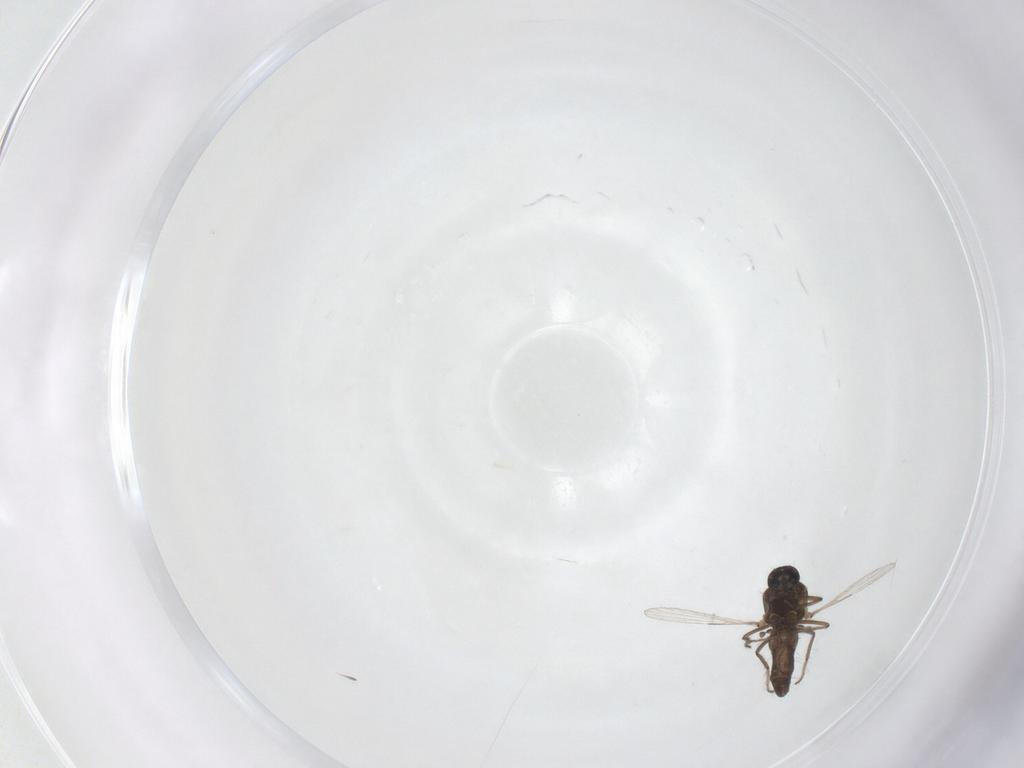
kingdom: Animalia
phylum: Arthropoda
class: Insecta
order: Diptera
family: Ceratopogonidae
